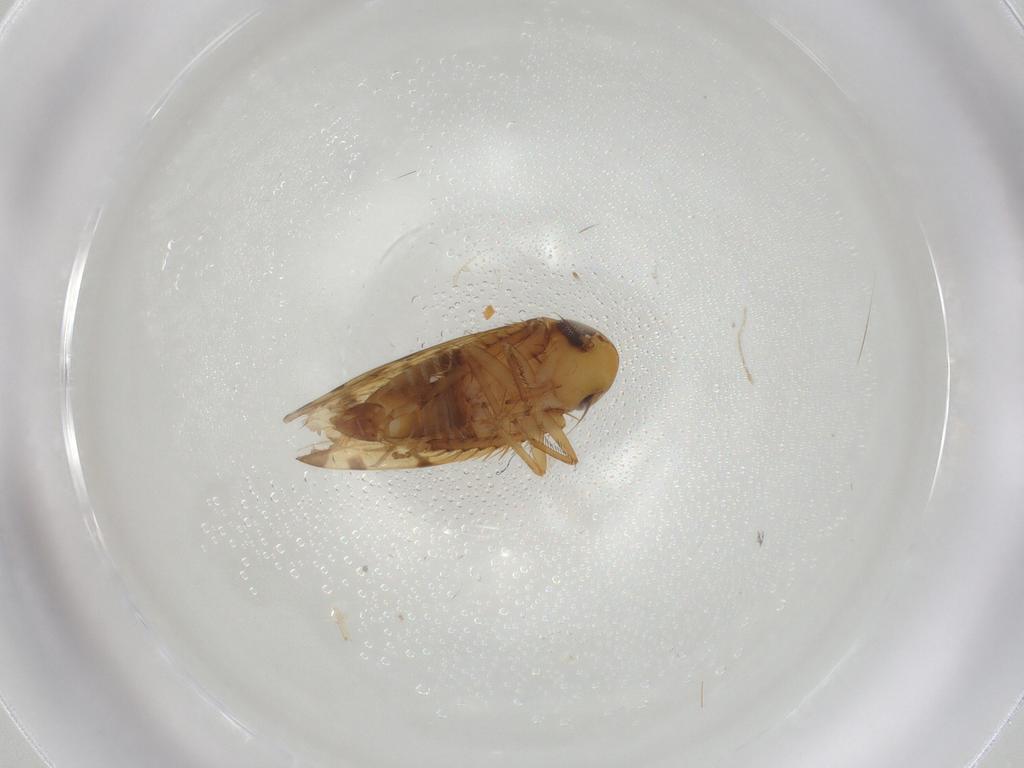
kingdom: Animalia
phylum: Arthropoda
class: Insecta
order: Hemiptera
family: Cicadellidae
